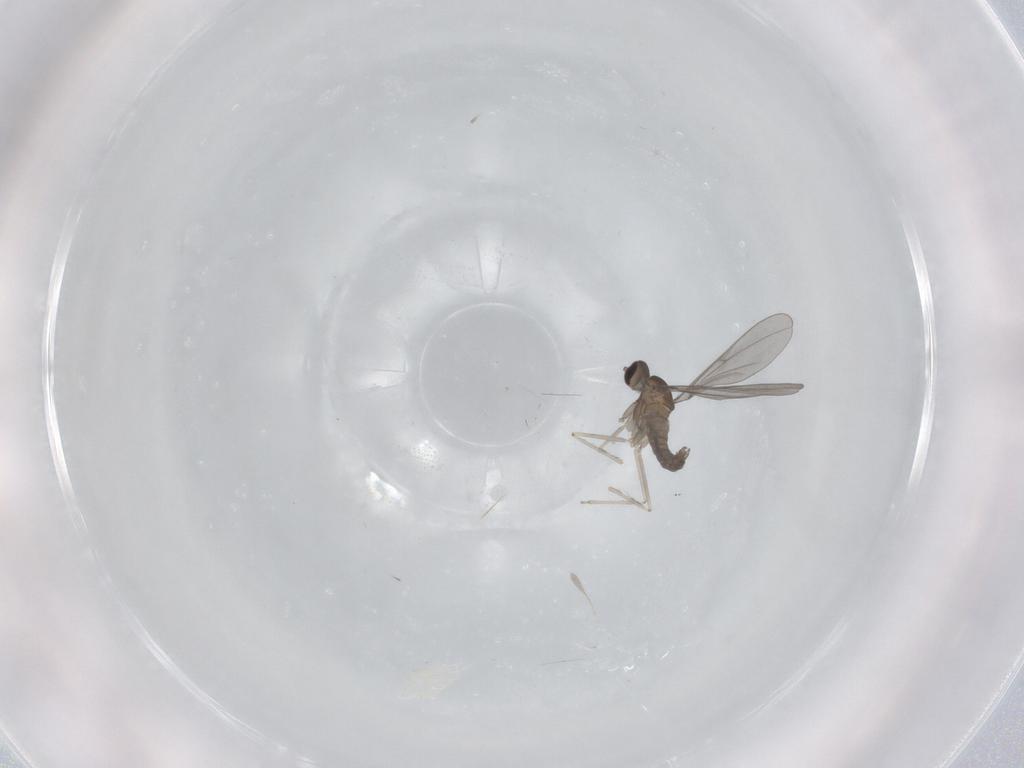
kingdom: Animalia
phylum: Arthropoda
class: Insecta
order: Diptera
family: Cecidomyiidae
